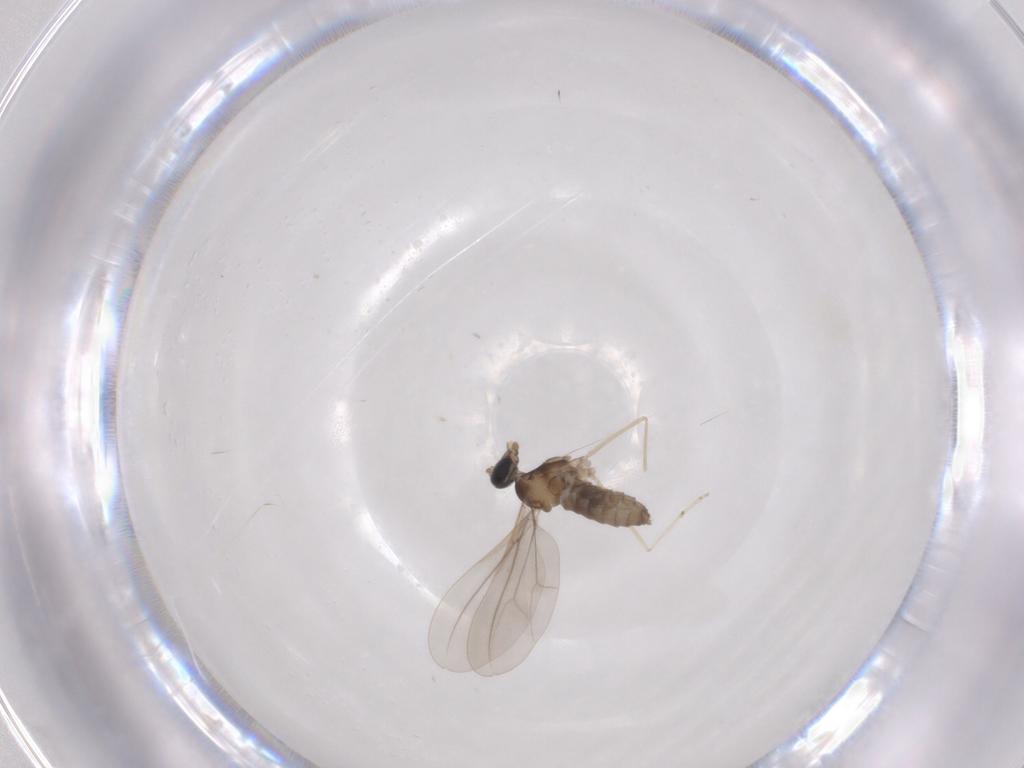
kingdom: Animalia
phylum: Arthropoda
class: Insecta
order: Diptera
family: Cecidomyiidae
